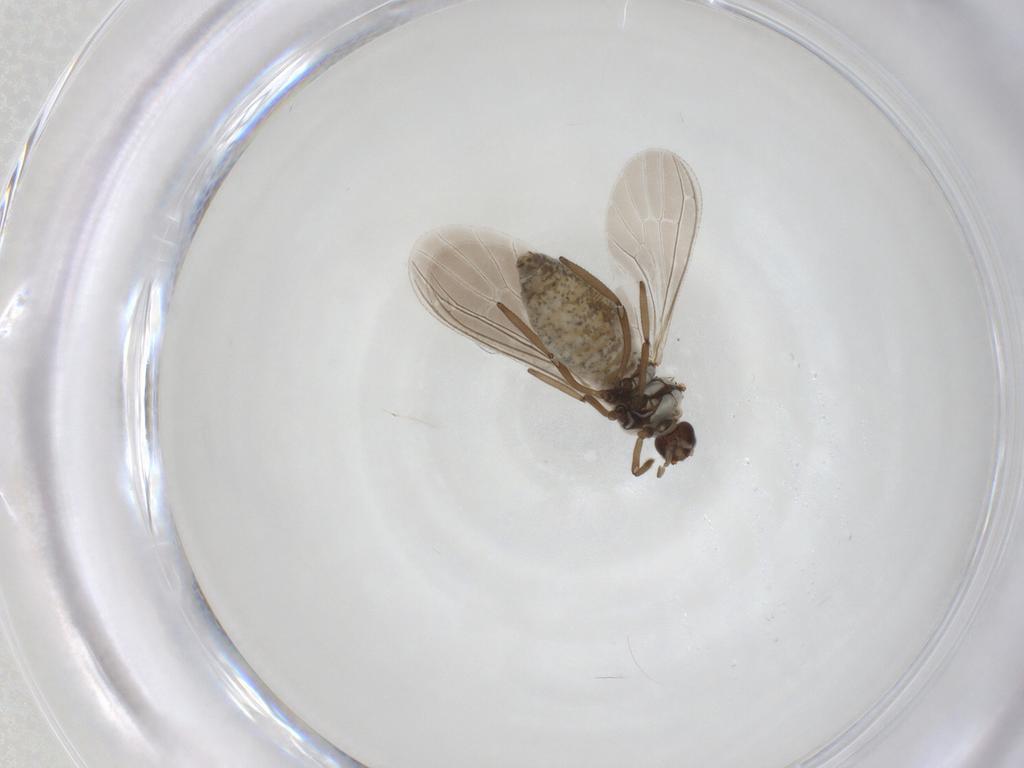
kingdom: Animalia
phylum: Arthropoda
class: Insecta
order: Neuroptera
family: Coniopterygidae
